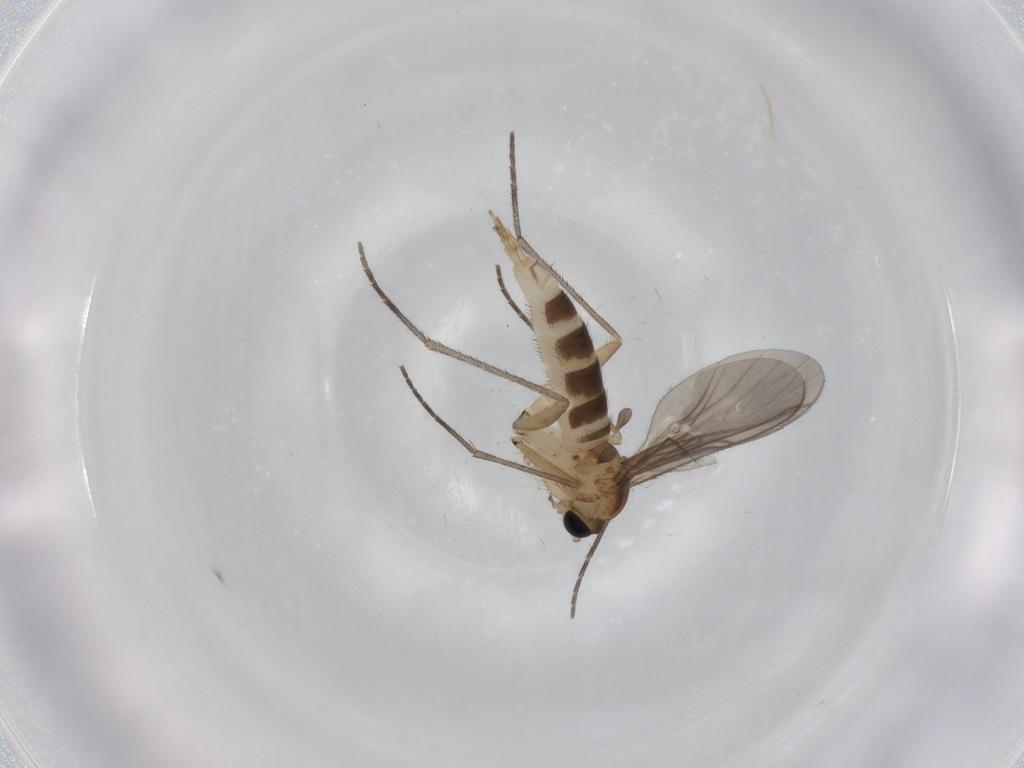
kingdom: Animalia
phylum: Arthropoda
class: Insecta
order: Diptera
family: Sciaridae
